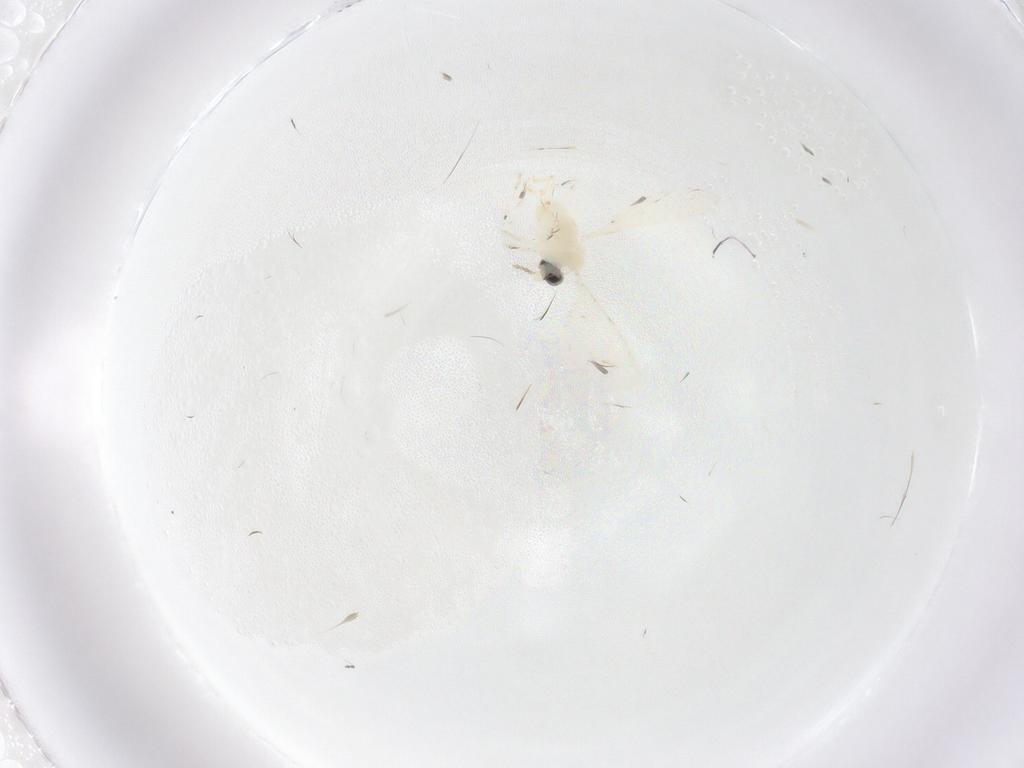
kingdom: Animalia
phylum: Arthropoda
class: Insecta
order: Diptera
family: Cecidomyiidae
